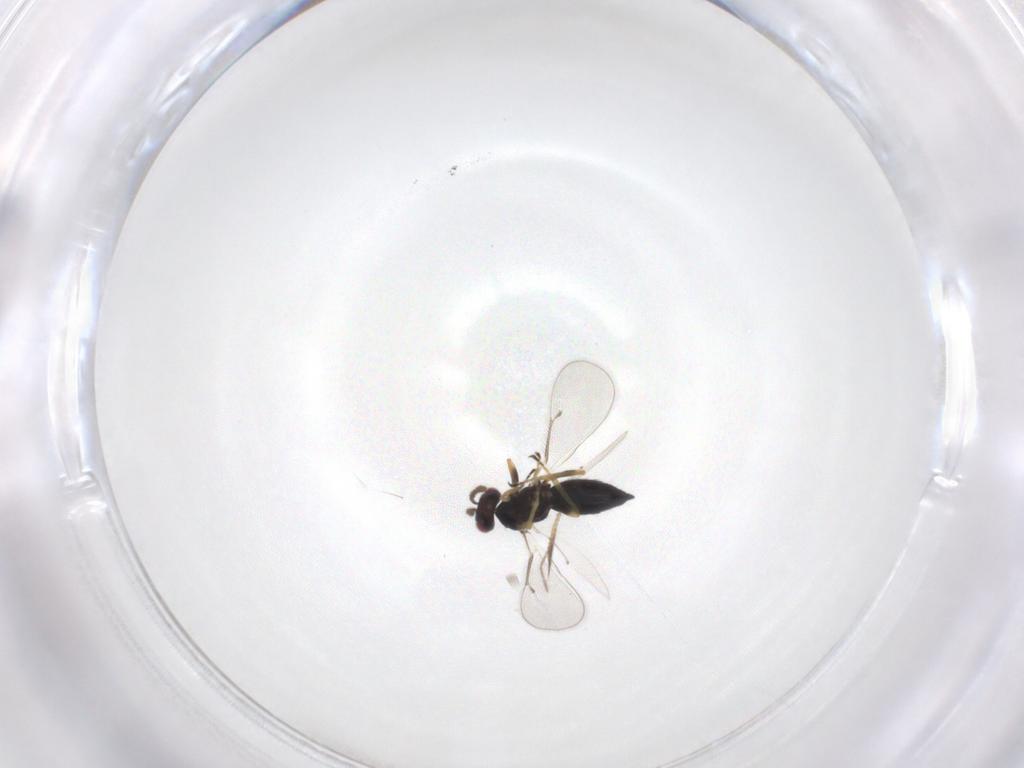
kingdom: Animalia
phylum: Arthropoda
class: Insecta
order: Hymenoptera
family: Eulophidae
